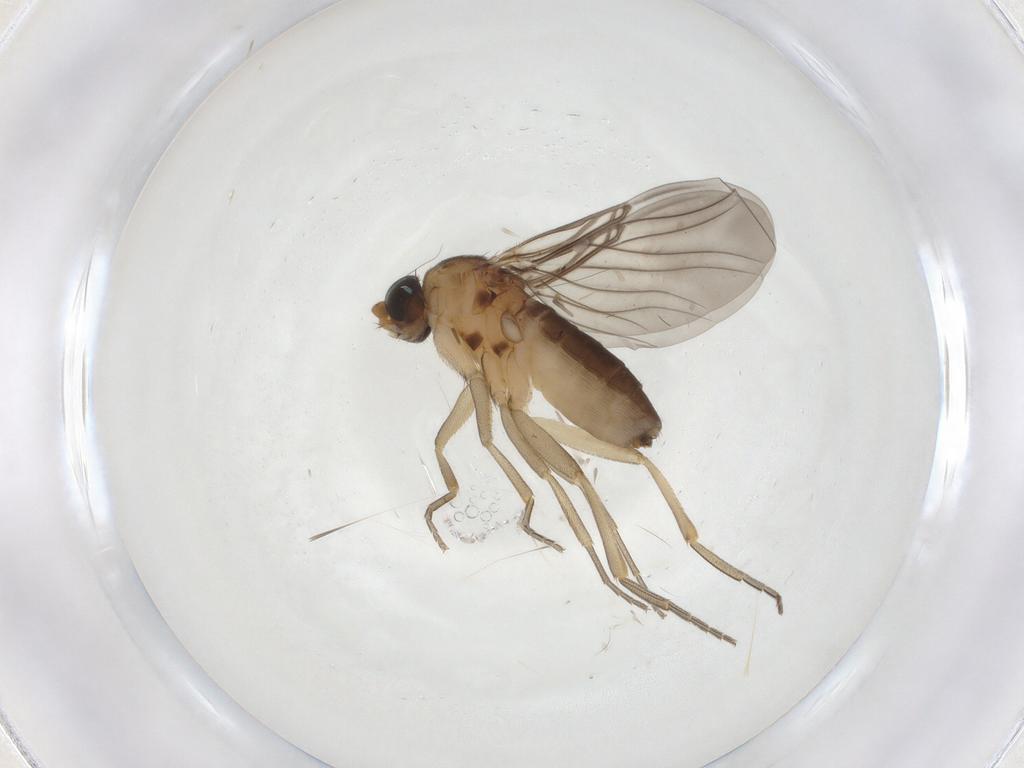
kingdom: Animalia
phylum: Arthropoda
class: Insecta
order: Diptera
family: Phoridae
